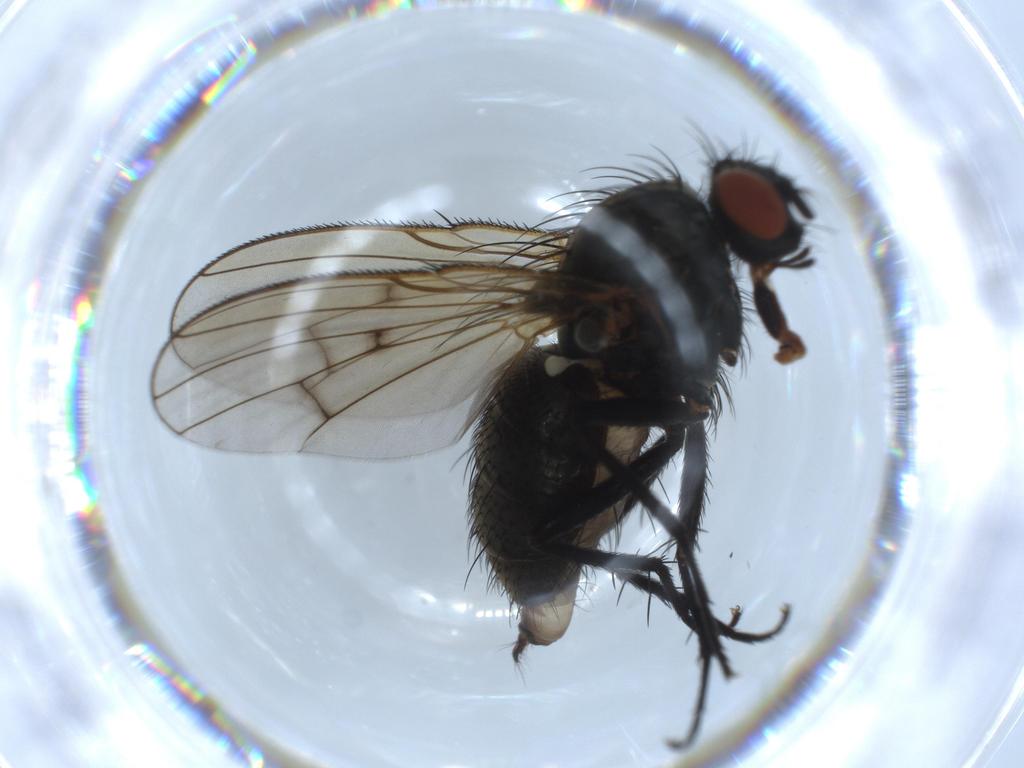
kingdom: Animalia
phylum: Arthropoda
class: Insecta
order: Diptera
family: Anthomyiidae
